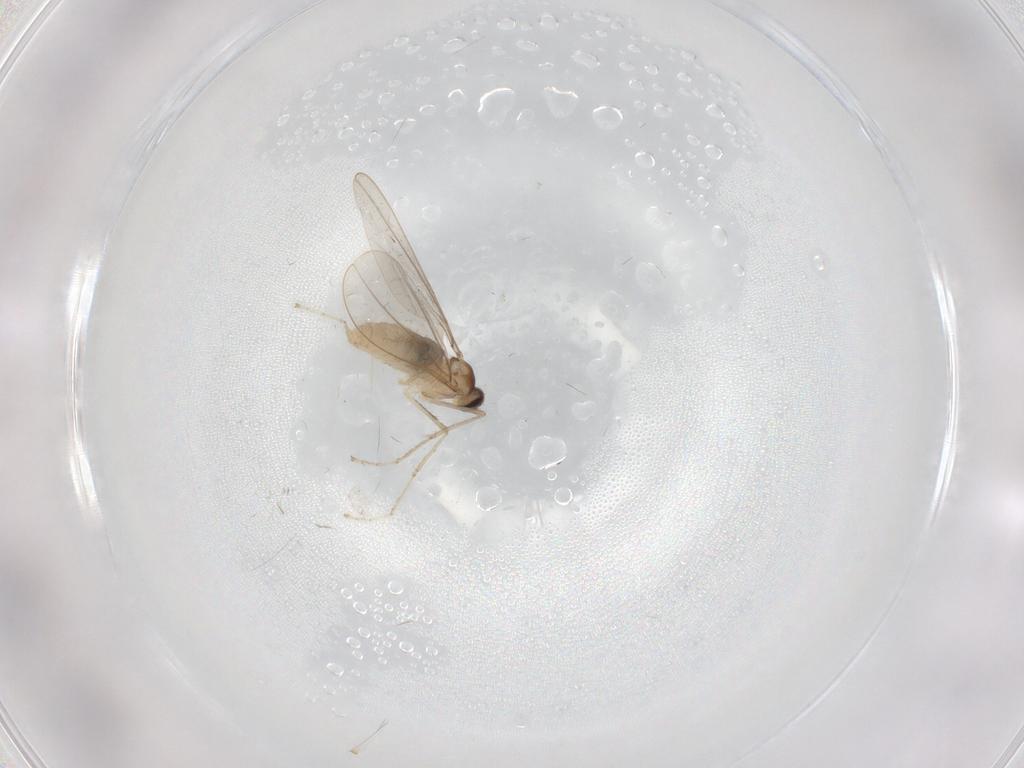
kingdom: Animalia
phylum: Arthropoda
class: Insecta
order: Diptera
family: Cecidomyiidae
